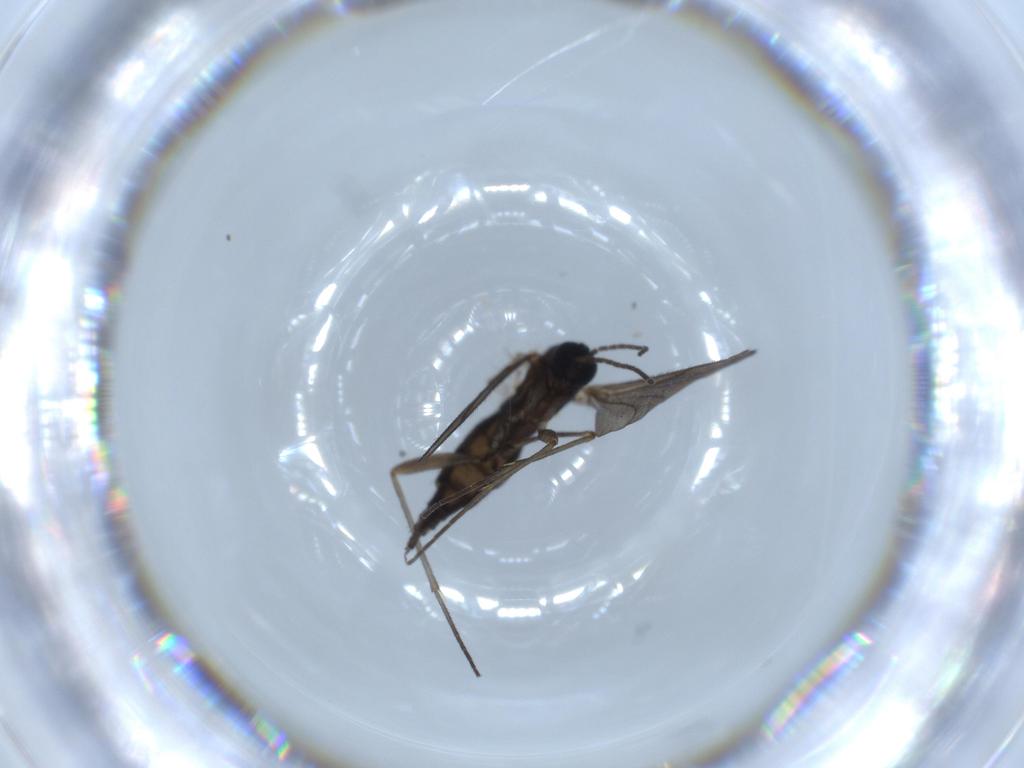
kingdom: Animalia
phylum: Arthropoda
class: Insecta
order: Diptera
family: Sciaridae
